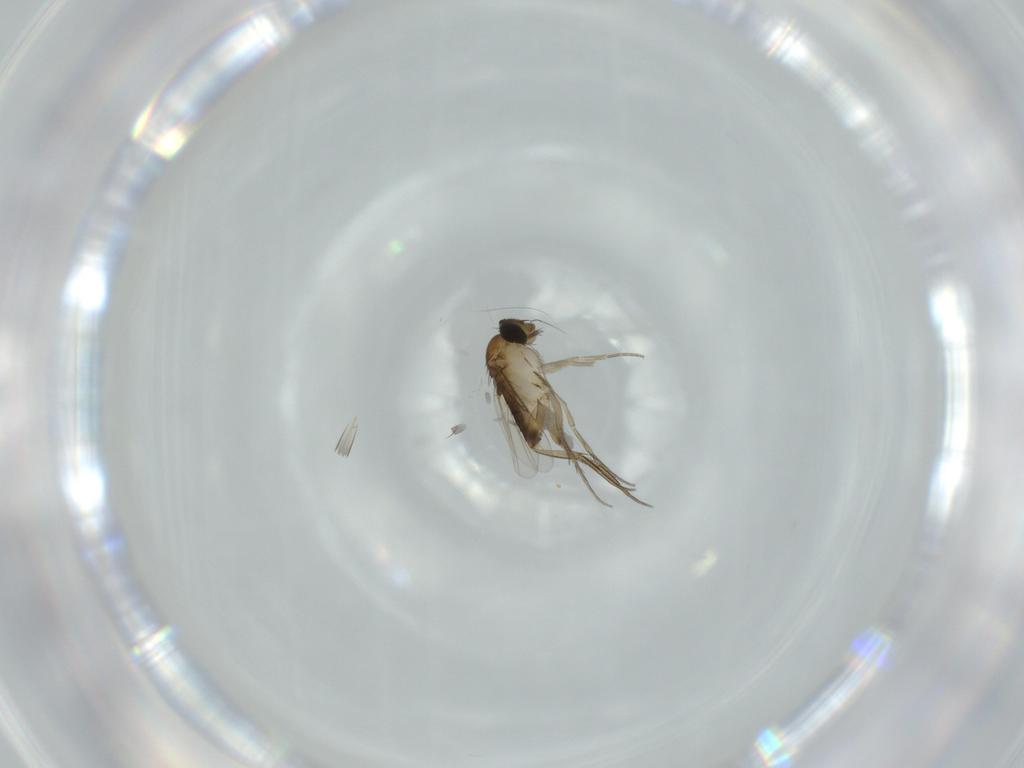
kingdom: Animalia
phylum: Arthropoda
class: Insecta
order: Diptera
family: Phoridae
